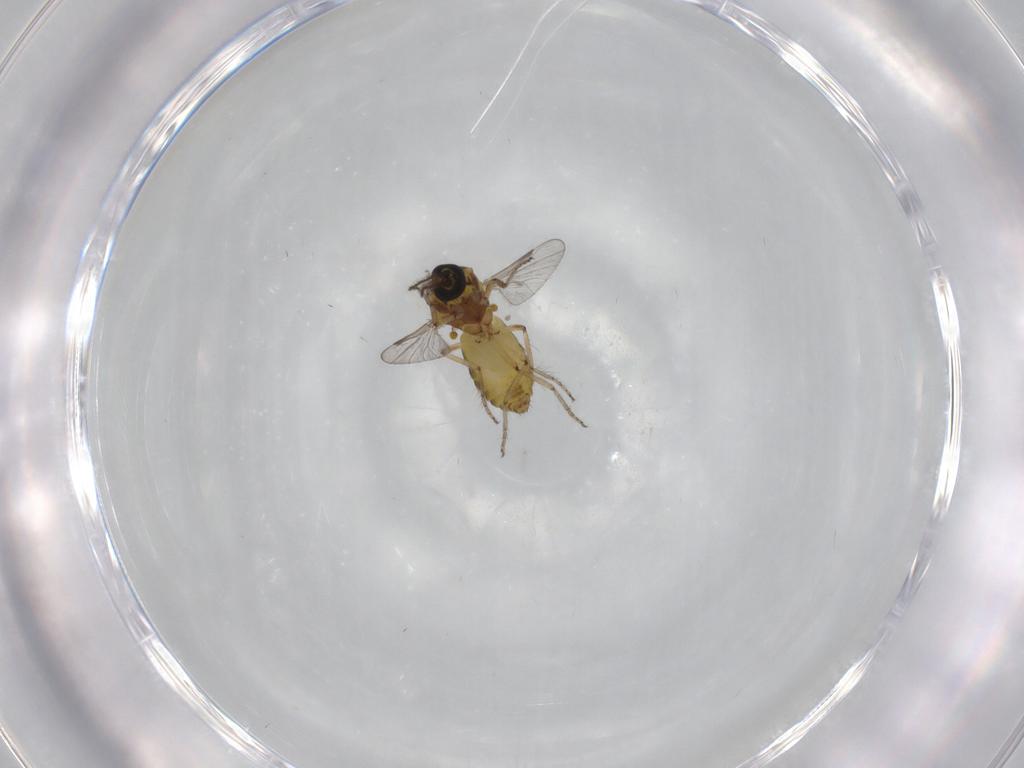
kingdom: Animalia
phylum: Arthropoda
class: Insecta
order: Diptera
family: Ceratopogonidae
